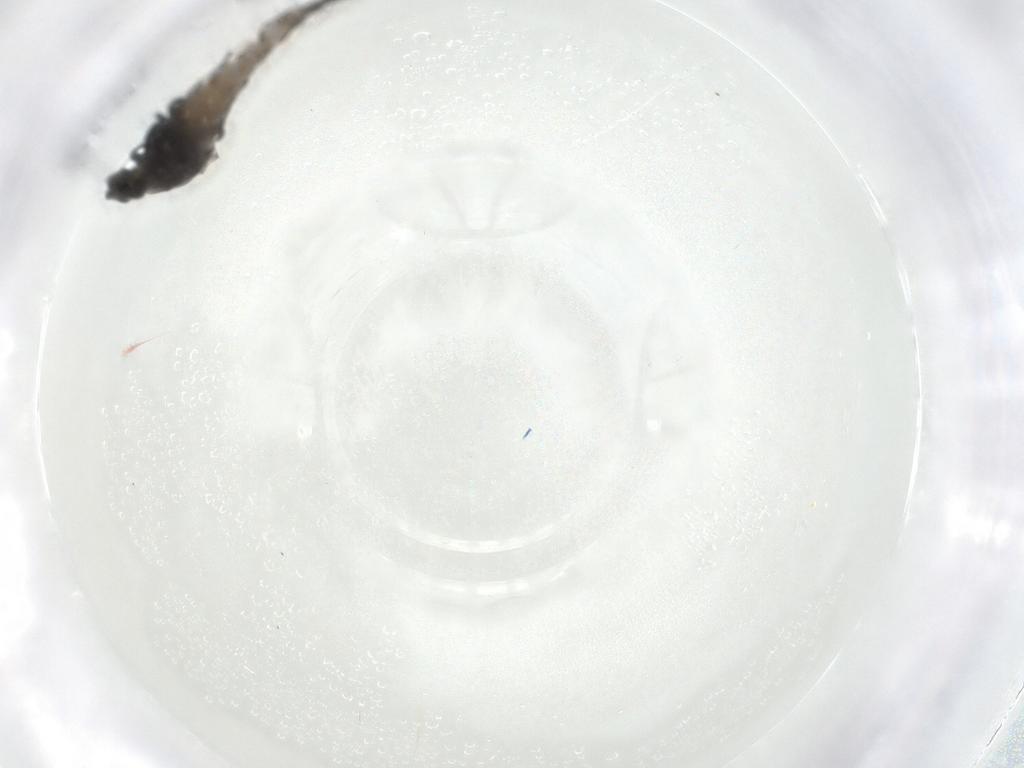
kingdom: Animalia
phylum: Arthropoda
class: Insecta
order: Diptera
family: Chironomidae
